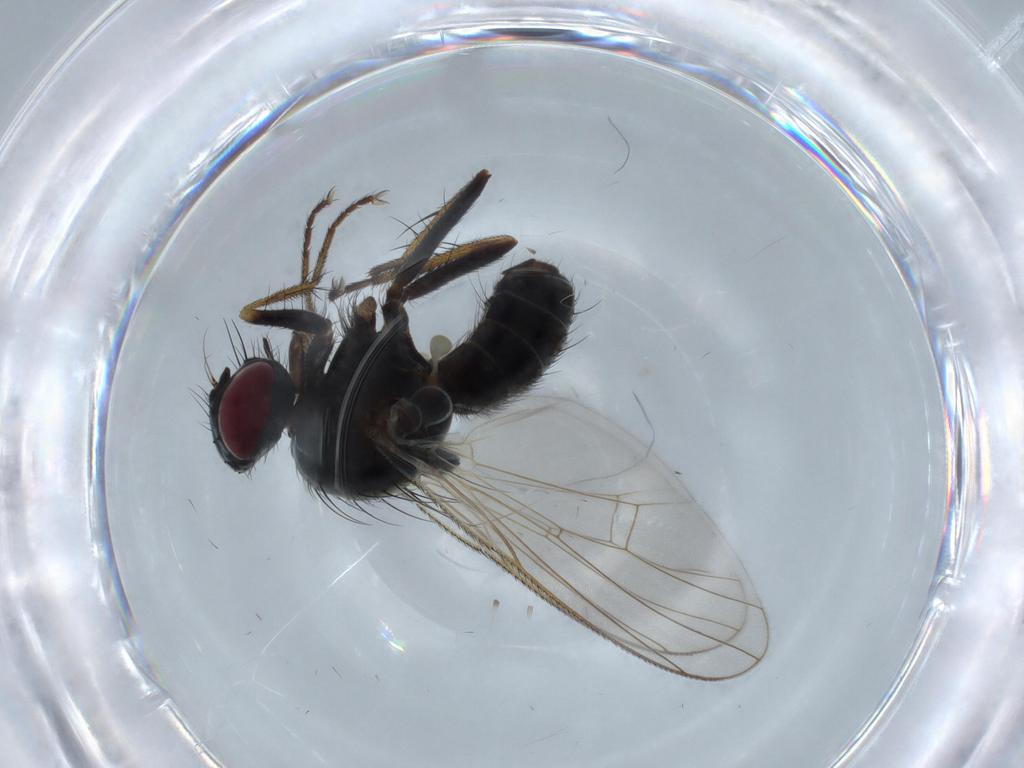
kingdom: Animalia
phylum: Arthropoda
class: Insecta
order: Diptera
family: Muscidae
